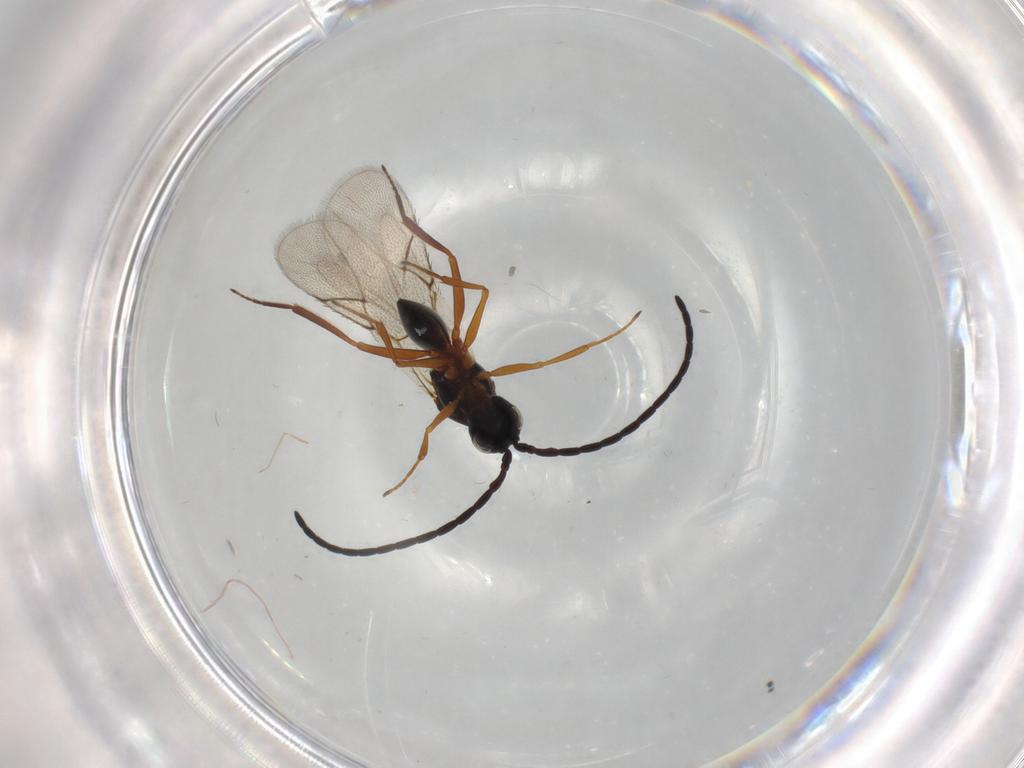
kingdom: Animalia
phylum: Arthropoda
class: Insecta
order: Hymenoptera
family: Figitidae
